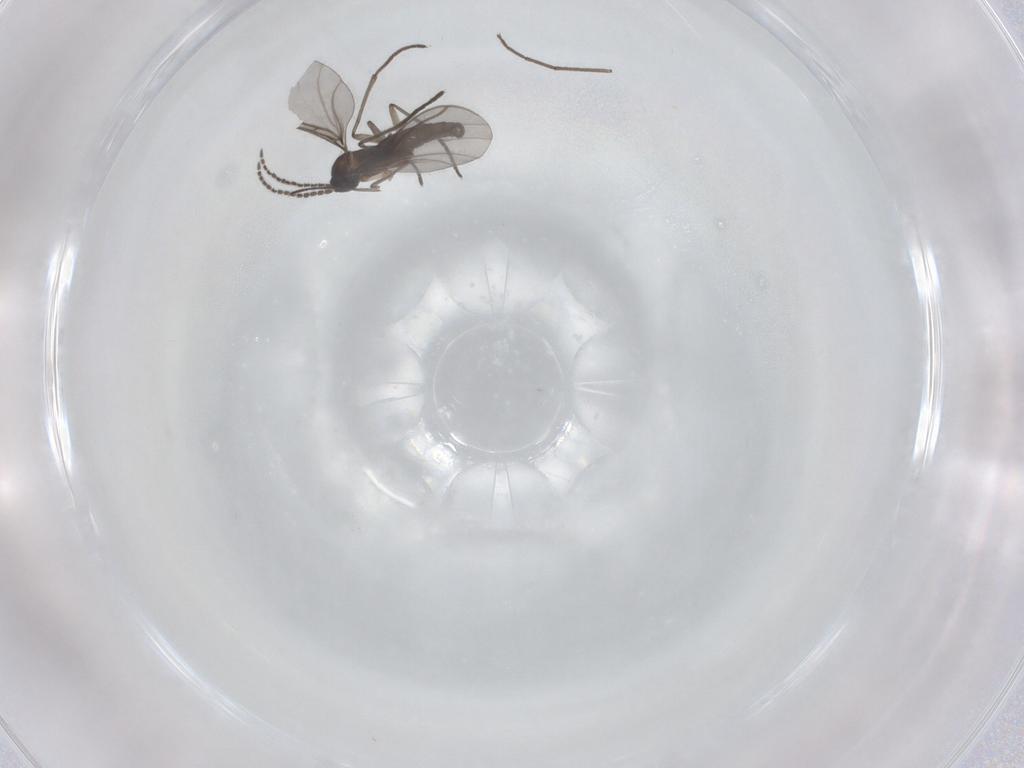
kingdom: Animalia
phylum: Arthropoda
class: Insecta
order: Diptera
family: Sciaridae
